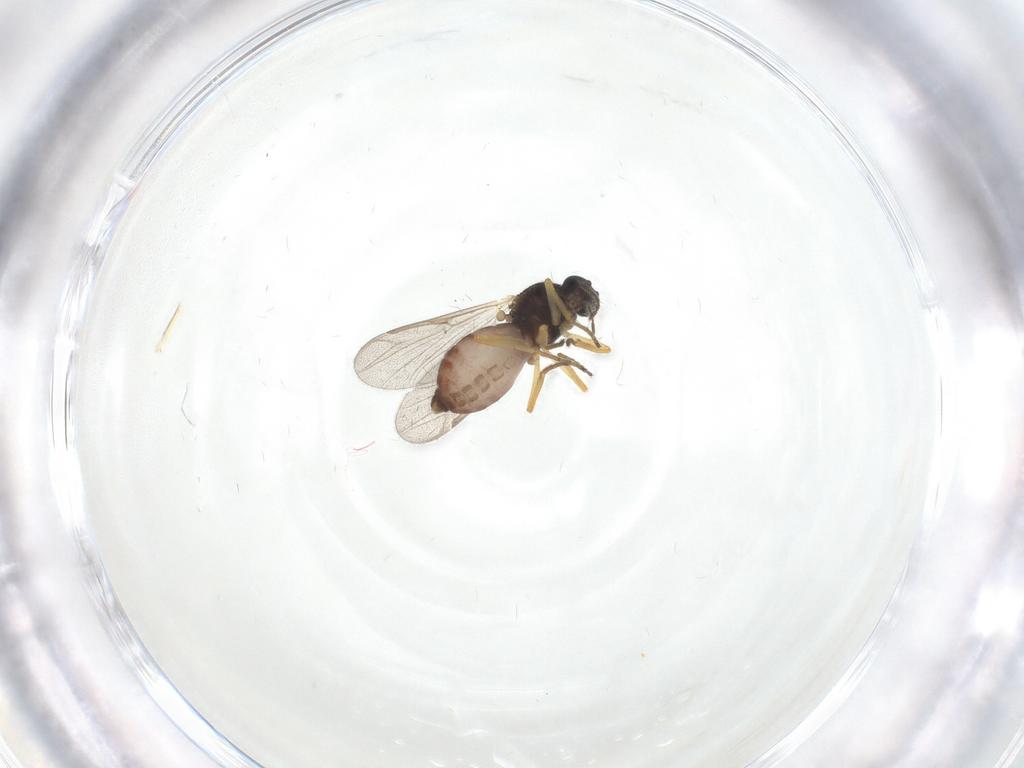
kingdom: Animalia
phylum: Arthropoda
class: Insecta
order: Diptera
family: Ceratopogonidae
